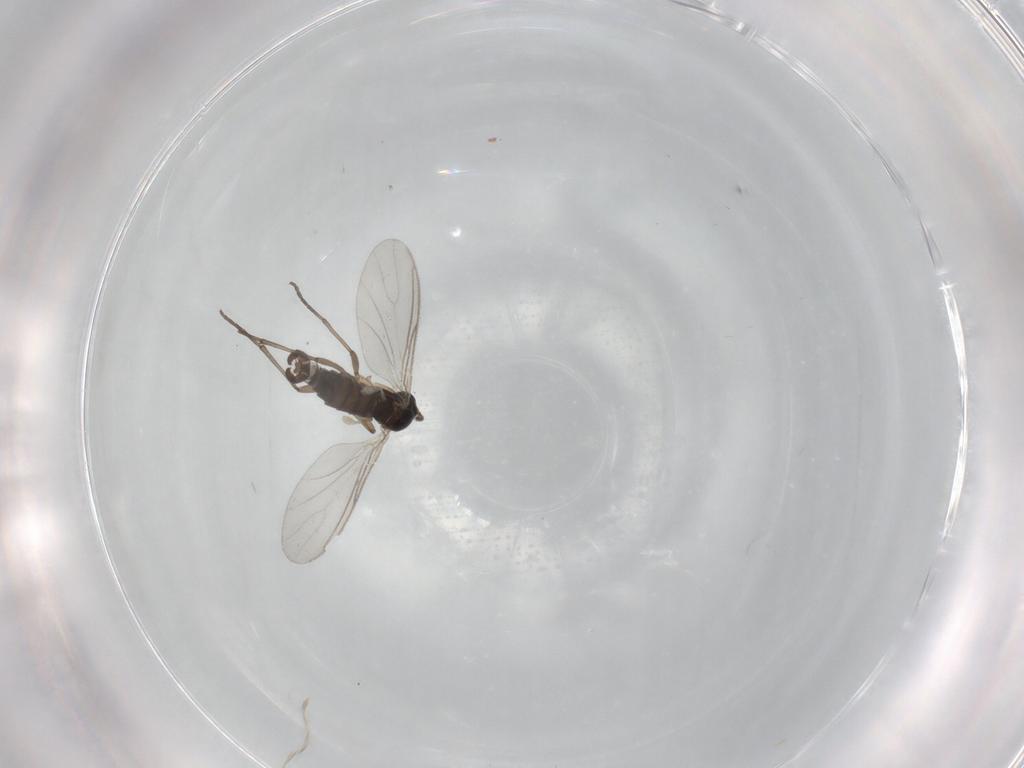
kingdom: Animalia
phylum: Arthropoda
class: Insecta
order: Diptera
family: Sciaridae
